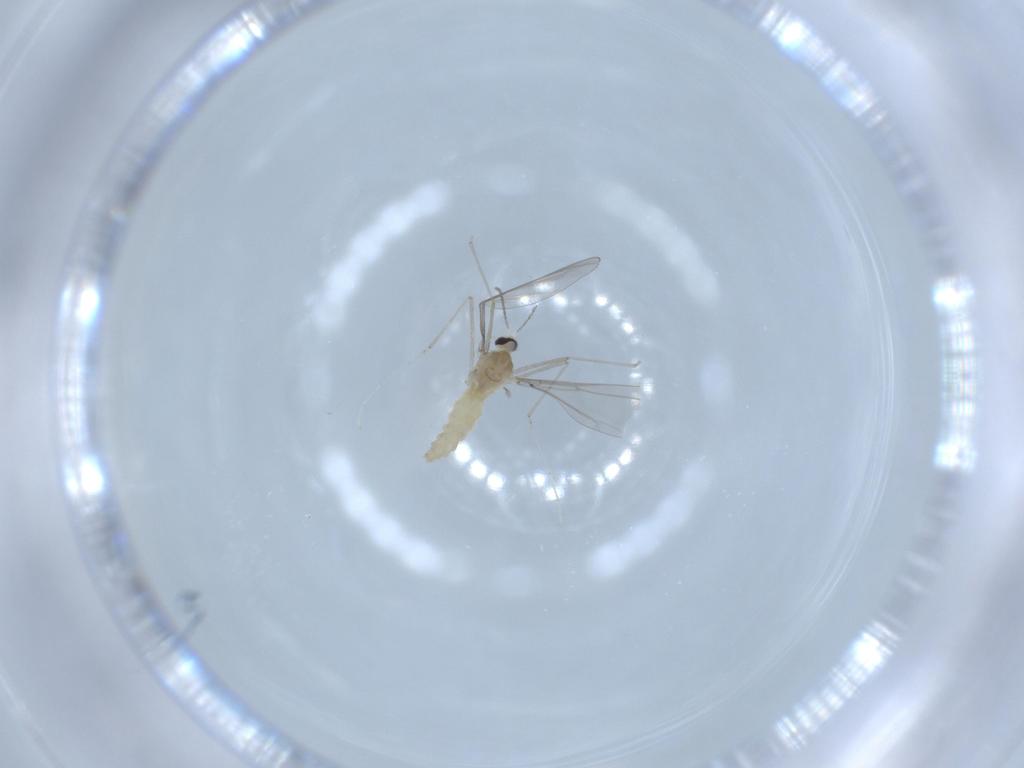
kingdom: Animalia
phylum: Arthropoda
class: Insecta
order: Diptera
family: Cecidomyiidae
